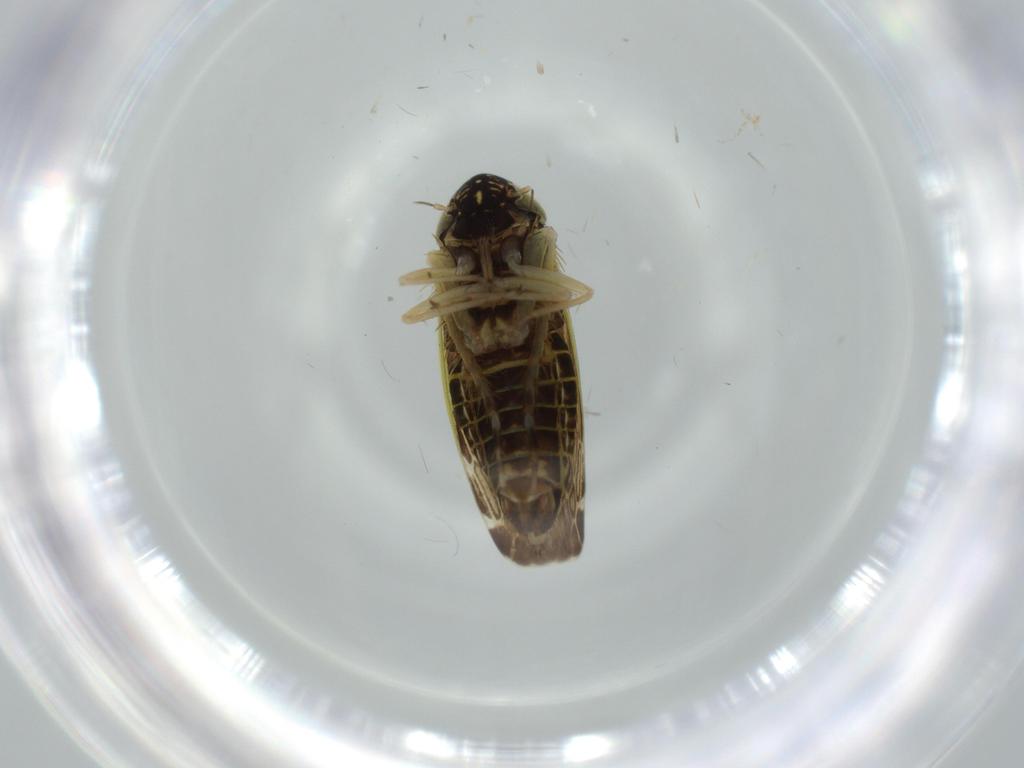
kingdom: Animalia
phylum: Arthropoda
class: Insecta
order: Hemiptera
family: Cicadellidae
